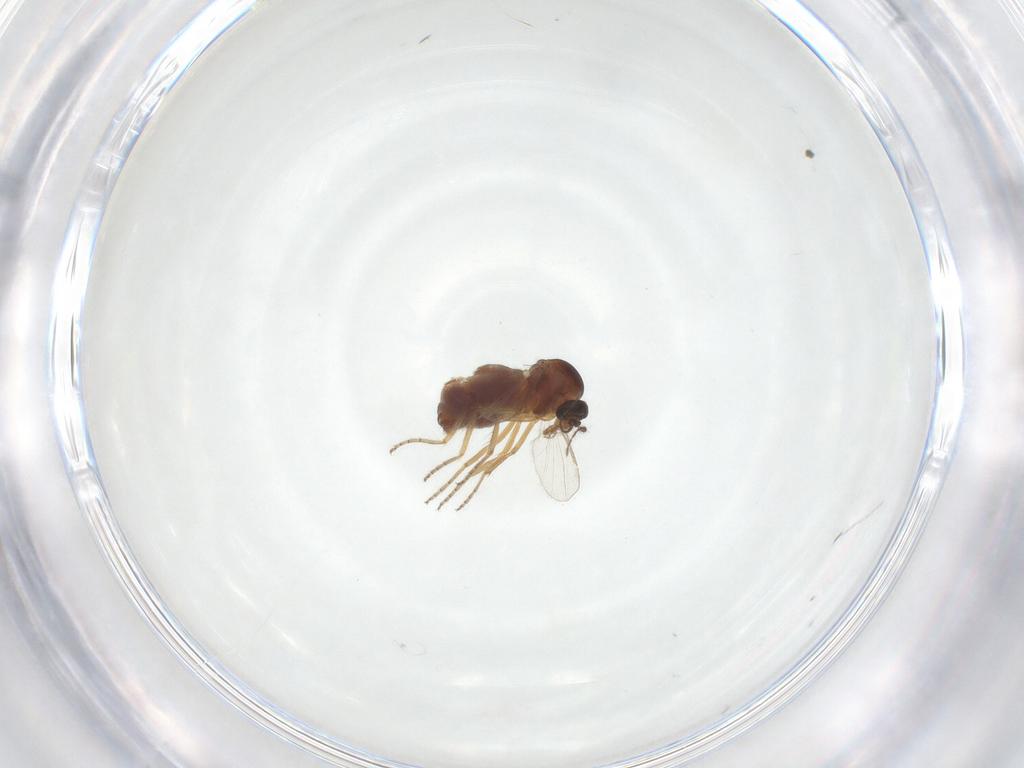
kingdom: Animalia
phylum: Arthropoda
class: Insecta
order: Diptera
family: Ceratopogonidae
